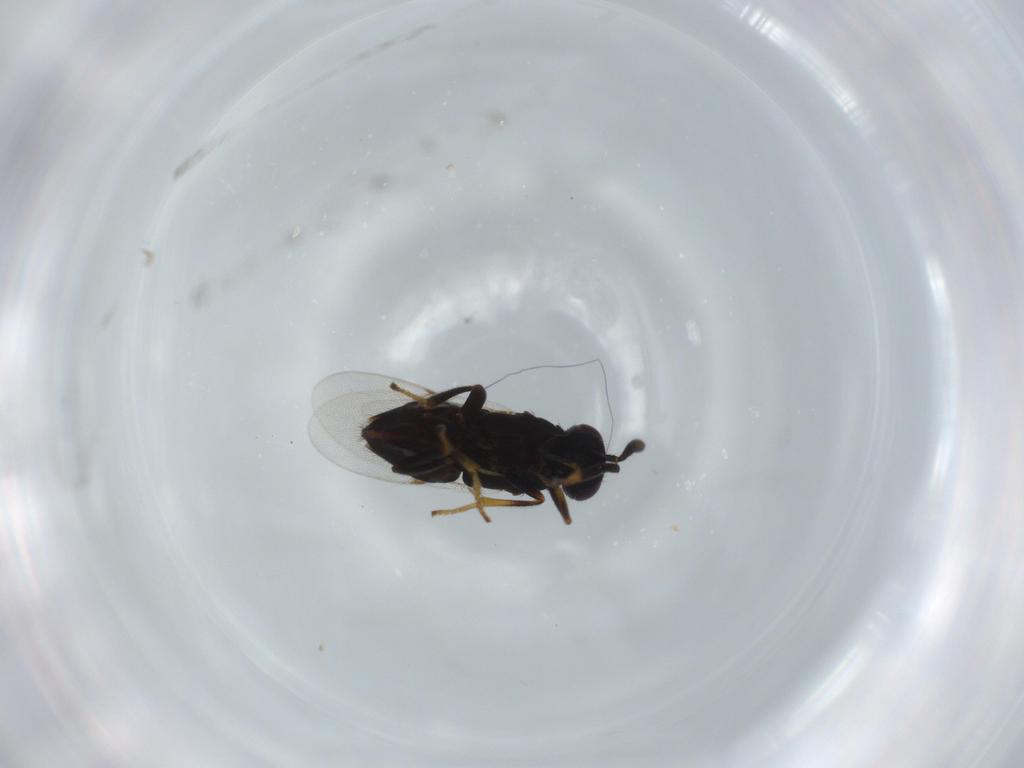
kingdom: Animalia
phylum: Arthropoda
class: Insecta
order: Hymenoptera
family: Encyrtidae
